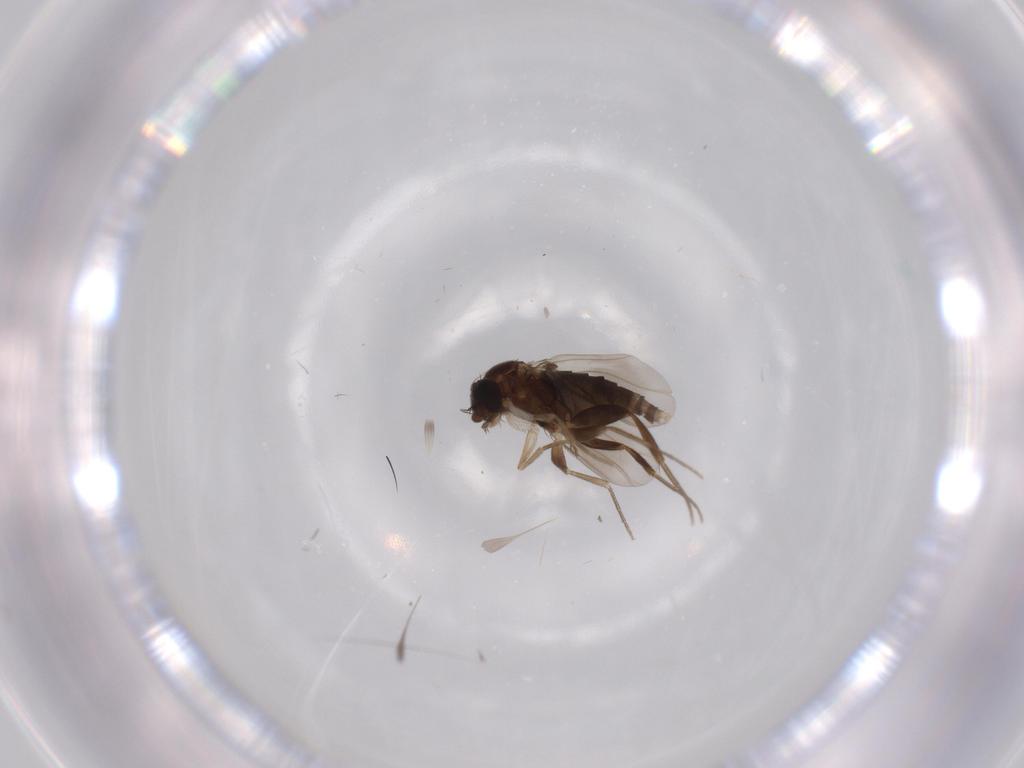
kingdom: Animalia
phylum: Arthropoda
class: Insecta
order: Diptera
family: Phoridae
